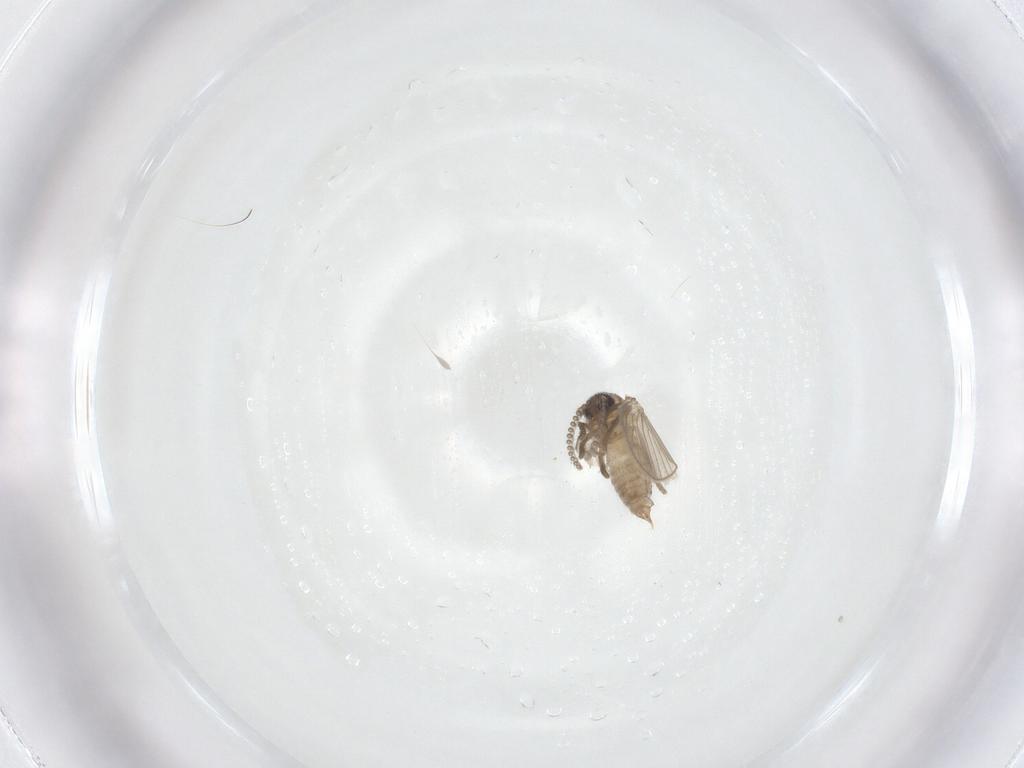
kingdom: Animalia
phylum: Arthropoda
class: Insecta
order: Diptera
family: Psychodidae
